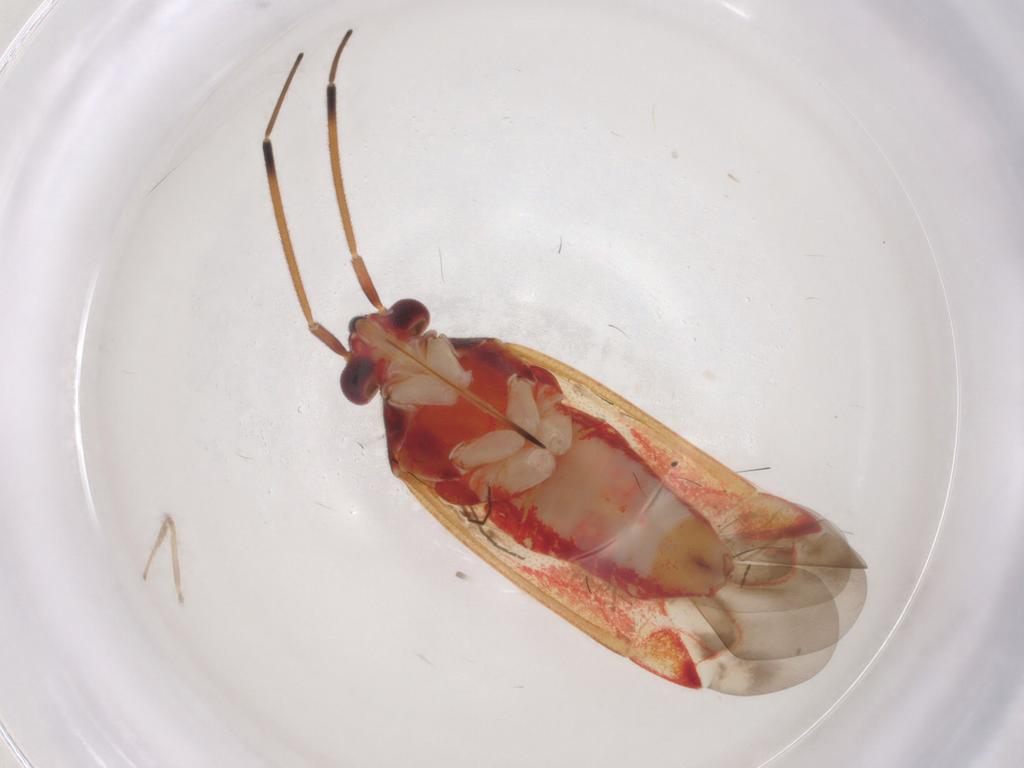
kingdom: Animalia
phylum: Arthropoda
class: Insecta
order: Hemiptera
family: Miridae
